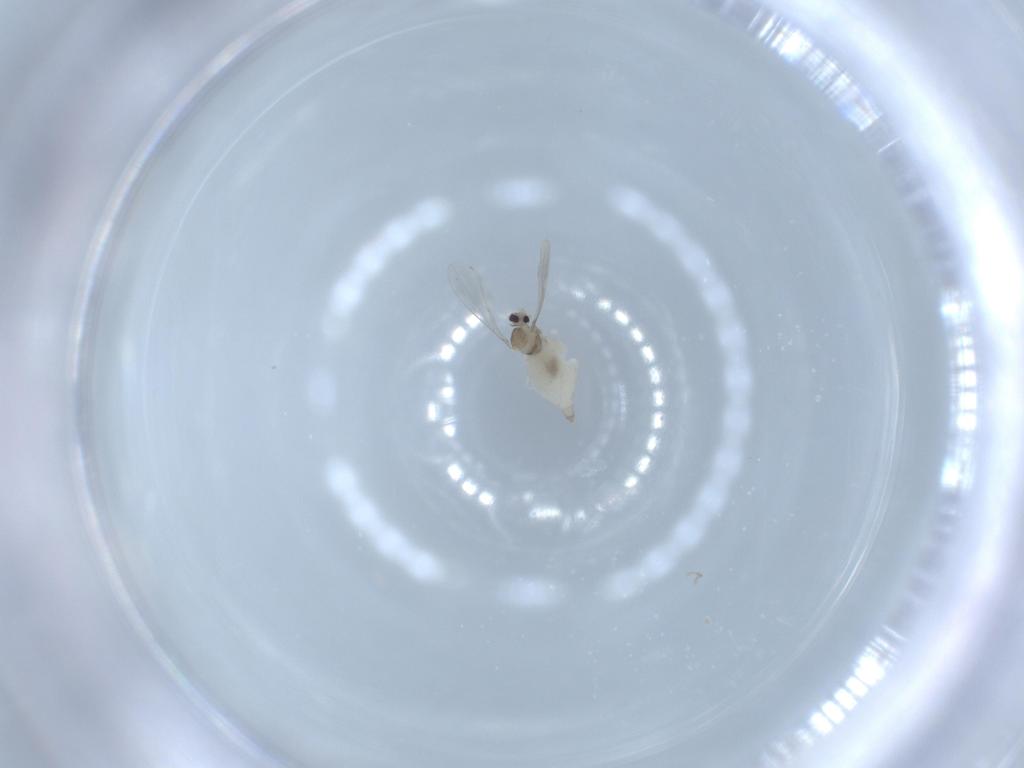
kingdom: Animalia
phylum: Arthropoda
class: Insecta
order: Diptera
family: Cecidomyiidae
